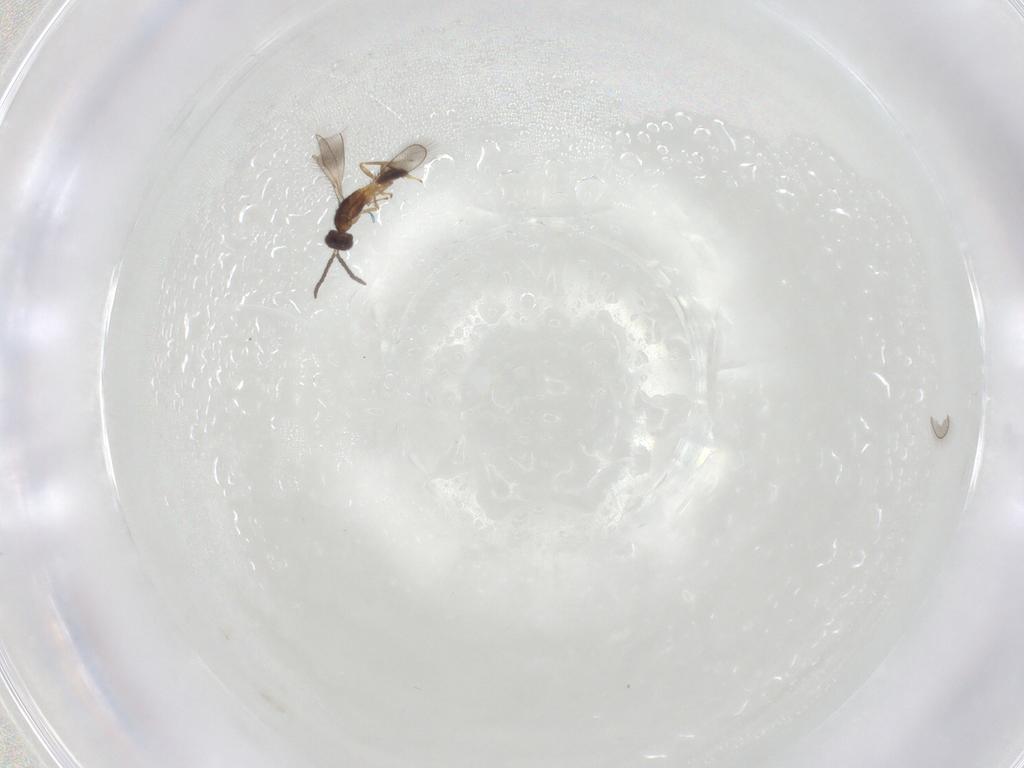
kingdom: Animalia
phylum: Arthropoda
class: Insecta
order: Hymenoptera
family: Pteromalidae
